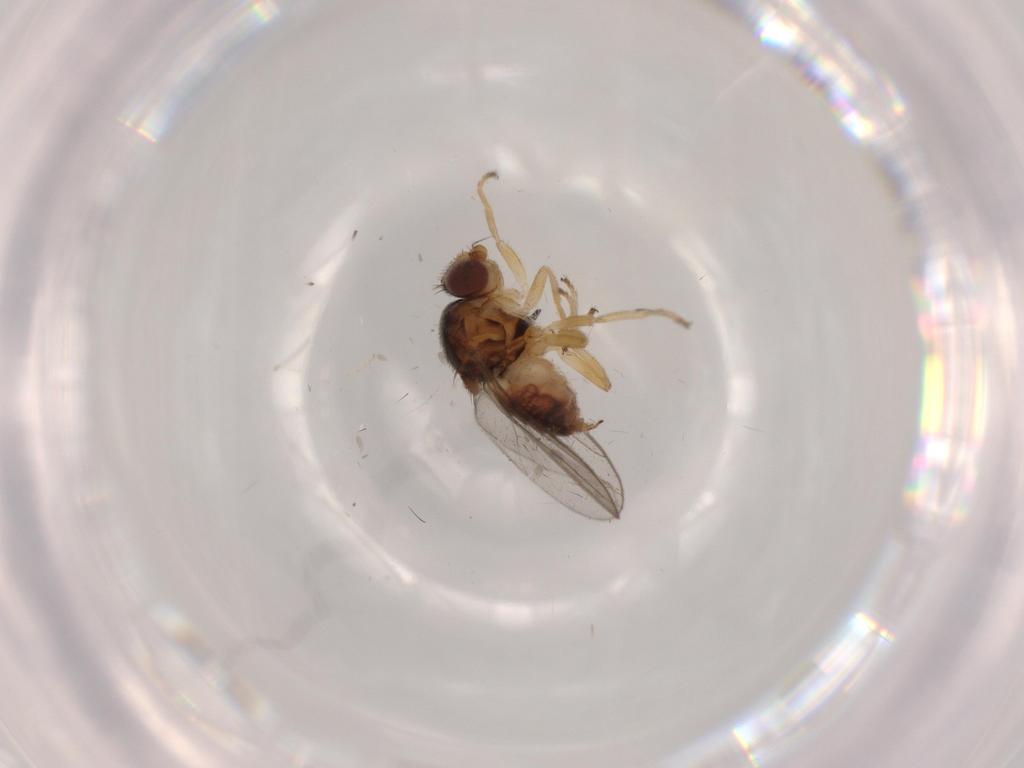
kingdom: Animalia
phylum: Arthropoda
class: Insecta
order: Diptera
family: Chloropidae
